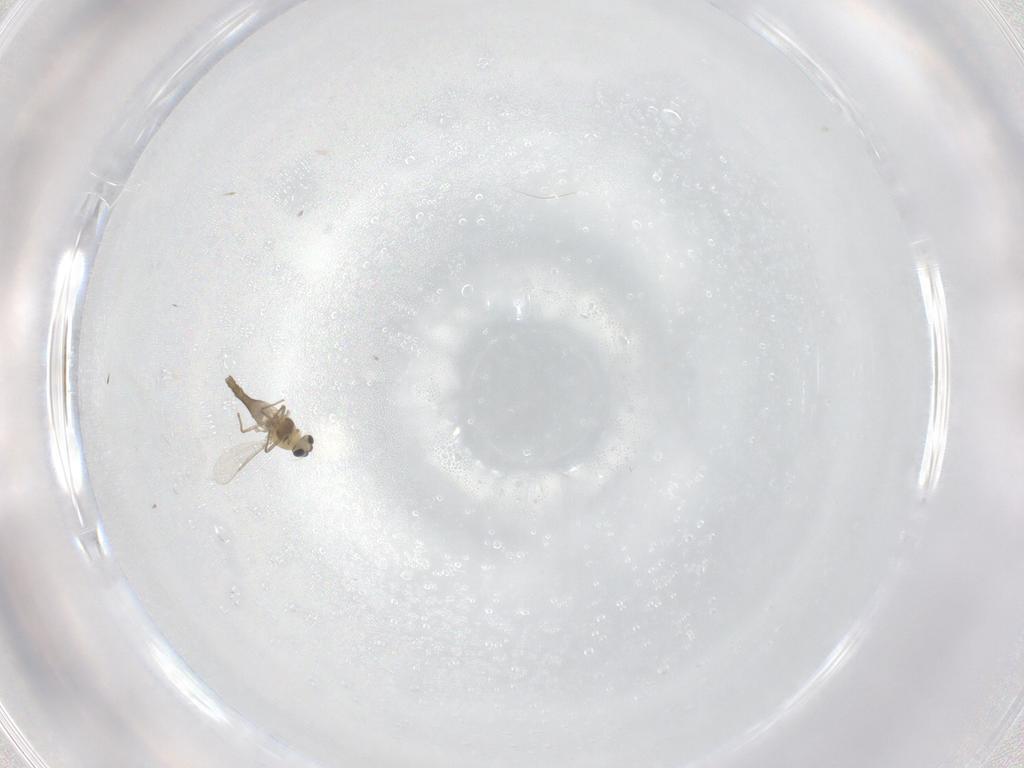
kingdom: Animalia
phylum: Arthropoda
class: Insecta
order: Diptera
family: Chironomidae
